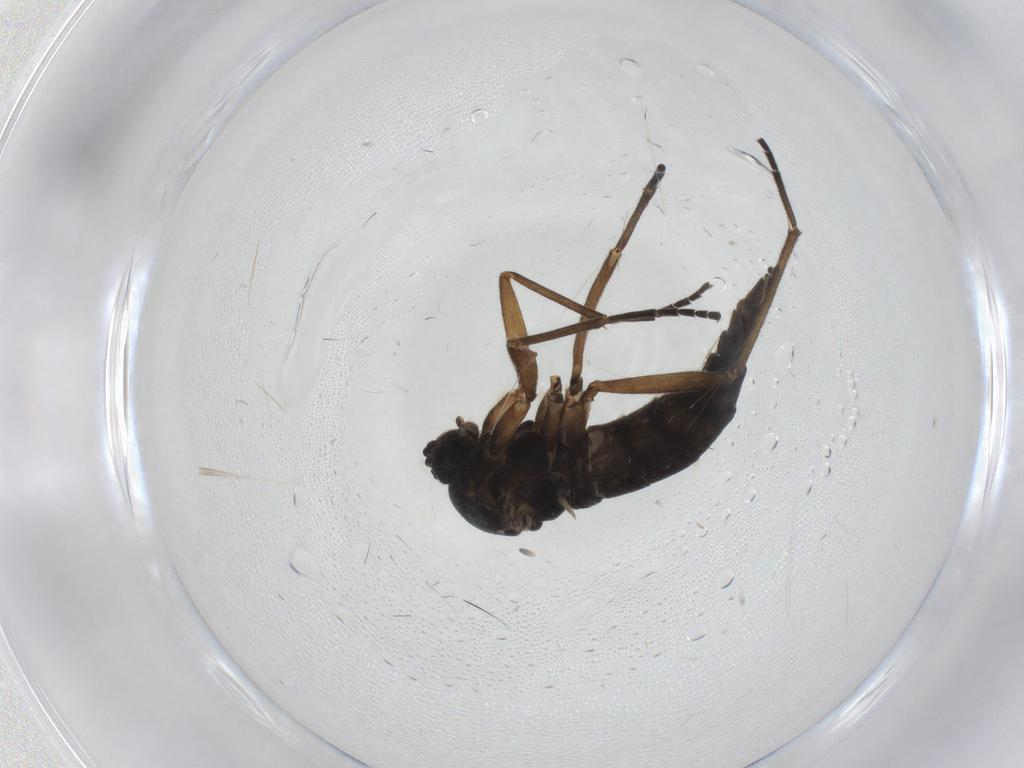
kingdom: Animalia
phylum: Arthropoda
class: Insecta
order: Diptera
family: Sciaridae
